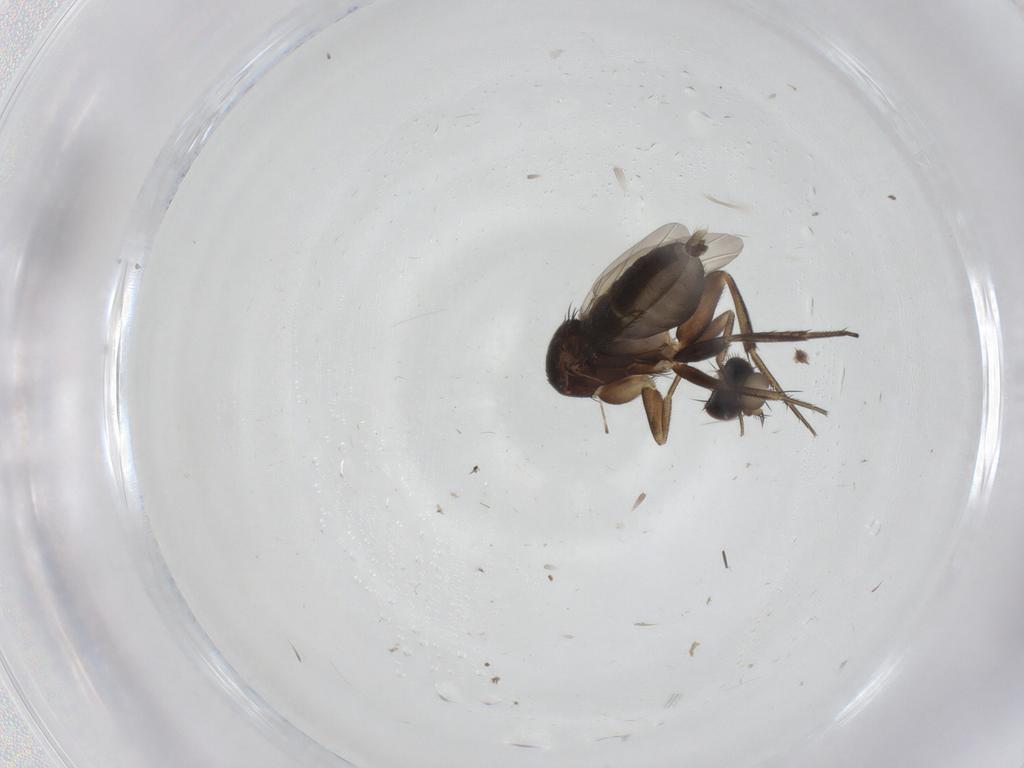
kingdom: Animalia
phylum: Arthropoda
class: Insecta
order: Diptera
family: Phoridae
